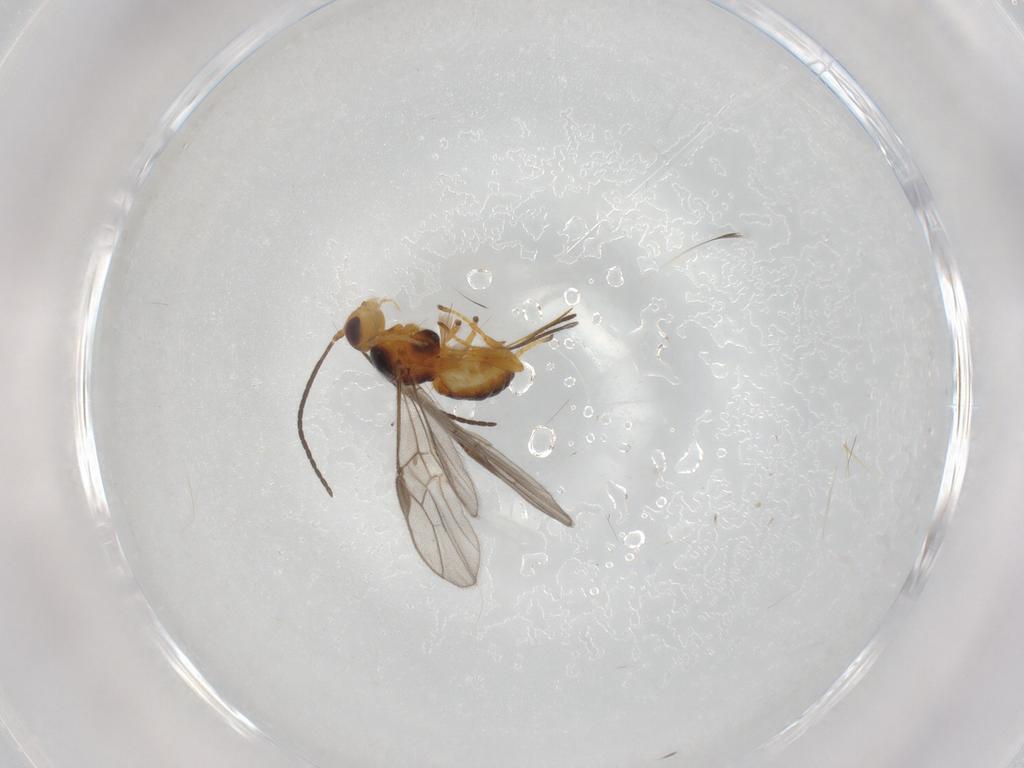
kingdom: Animalia
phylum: Arthropoda
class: Insecta
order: Hymenoptera
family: Braconidae
